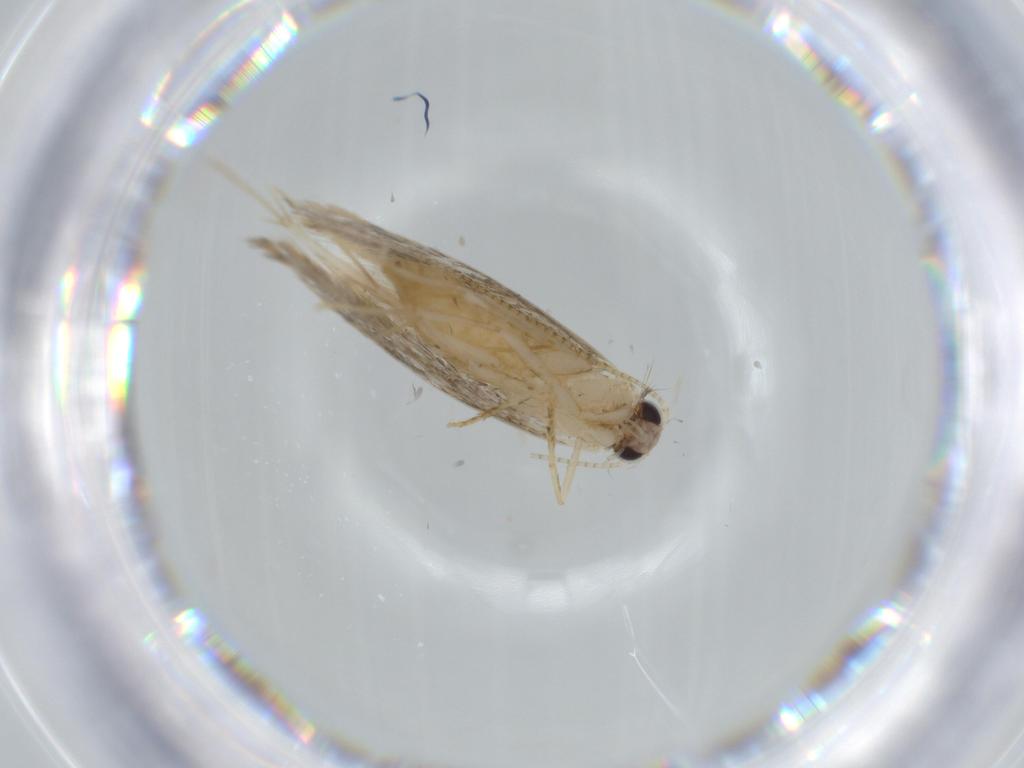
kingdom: Animalia
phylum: Arthropoda
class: Insecta
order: Lepidoptera
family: Tineidae
